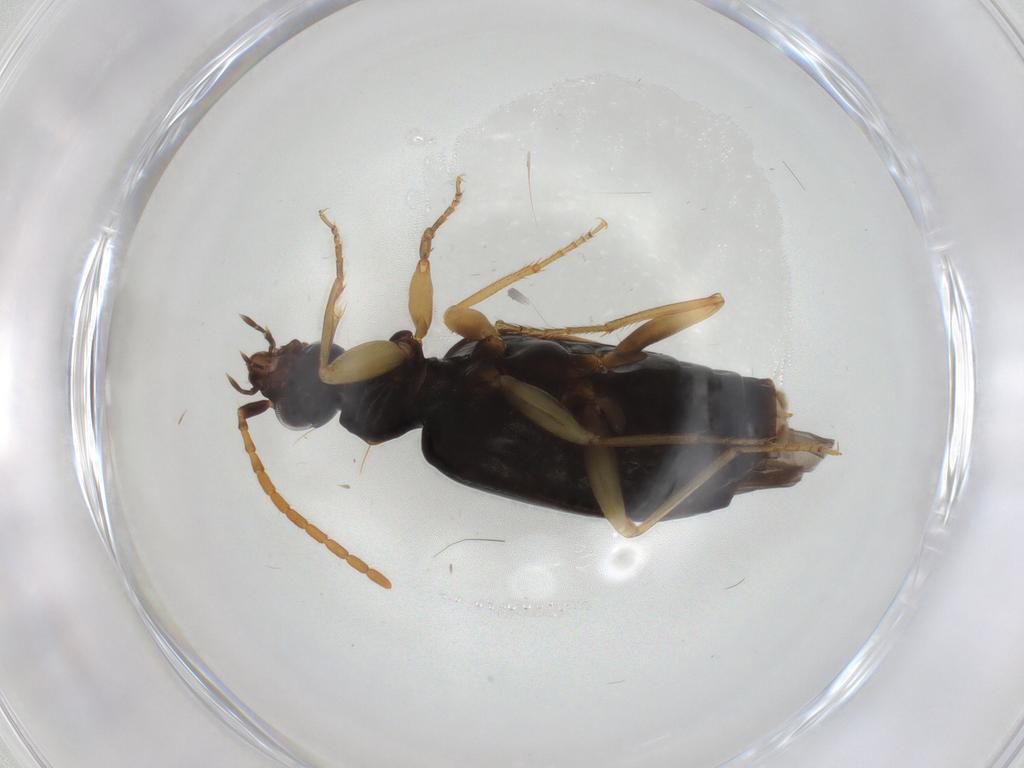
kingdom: Animalia
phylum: Arthropoda
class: Insecta
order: Coleoptera
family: Carabidae
